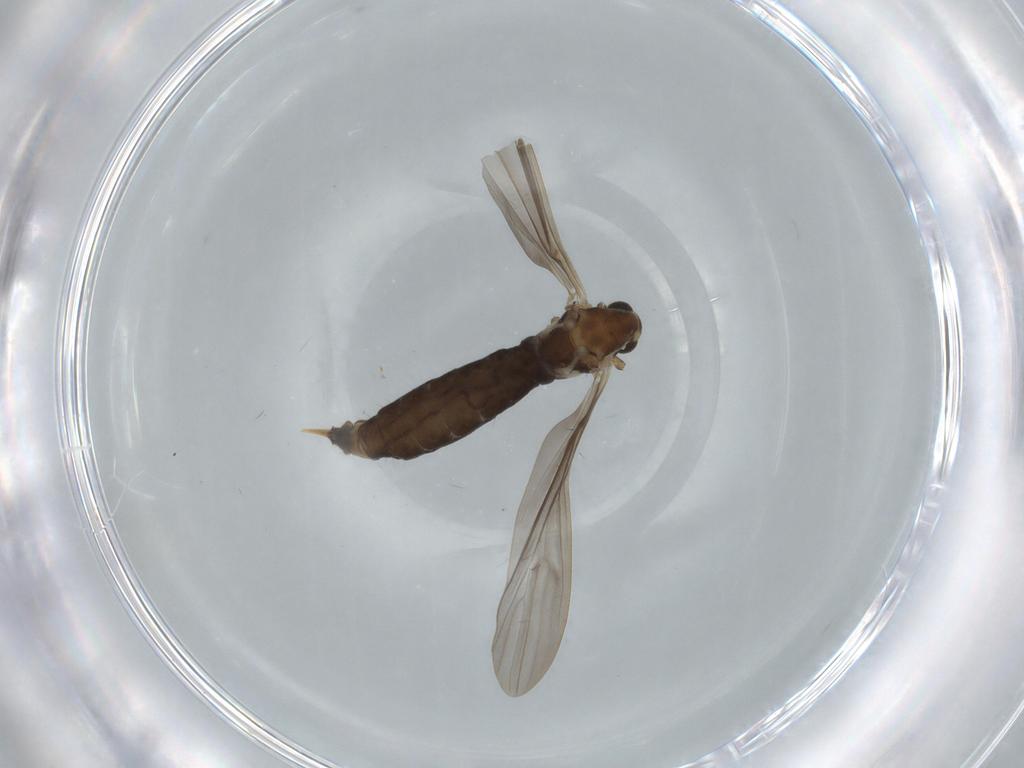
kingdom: Animalia
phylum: Arthropoda
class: Insecta
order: Diptera
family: Limoniidae
